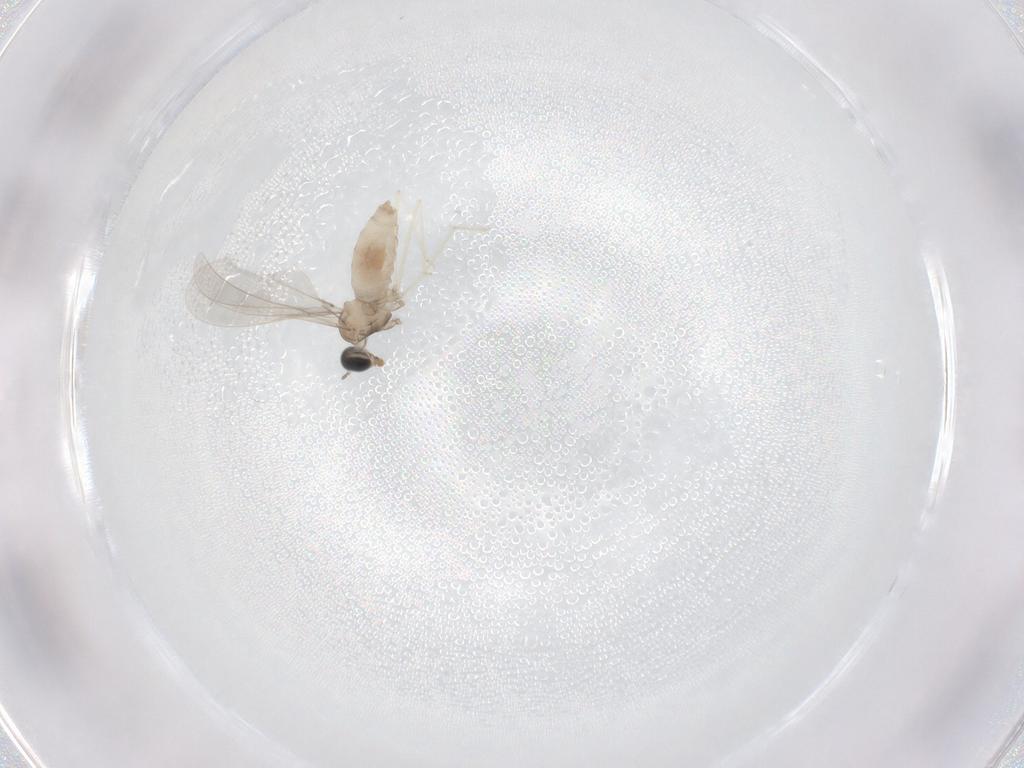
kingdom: Animalia
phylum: Arthropoda
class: Insecta
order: Diptera
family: Cecidomyiidae
